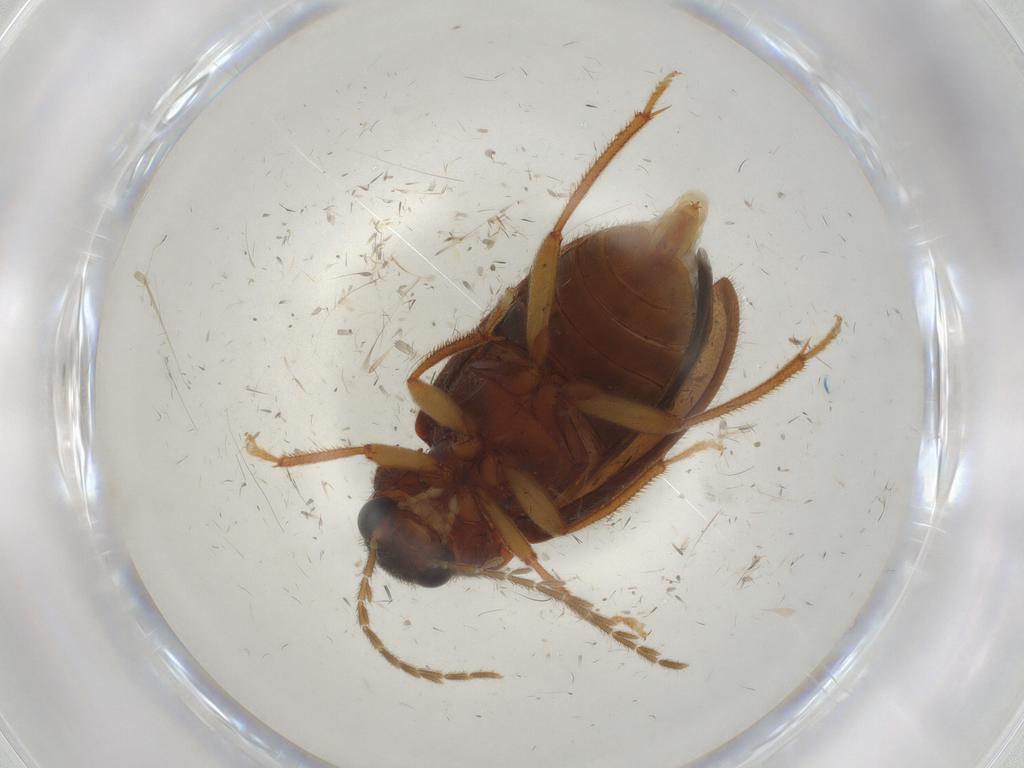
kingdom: Animalia
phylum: Arthropoda
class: Insecta
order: Coleoptera
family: Ptilodactylidae
